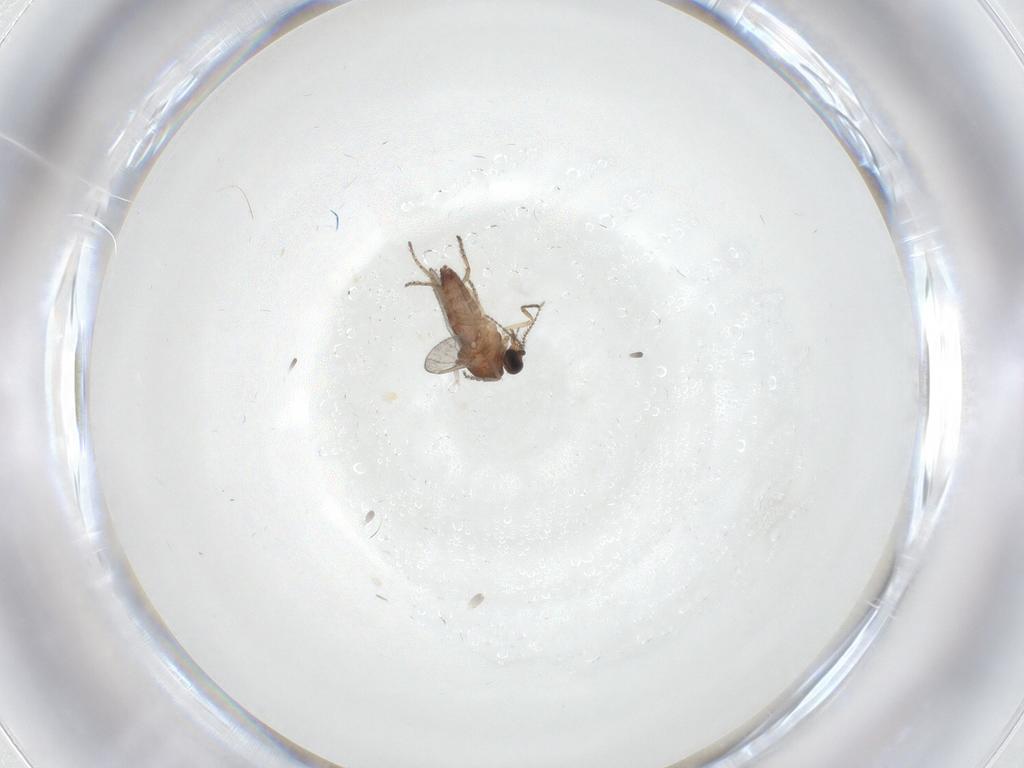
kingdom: Animalia
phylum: Arthropoda
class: Insecta
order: Diptera
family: Ceratopogonidae
